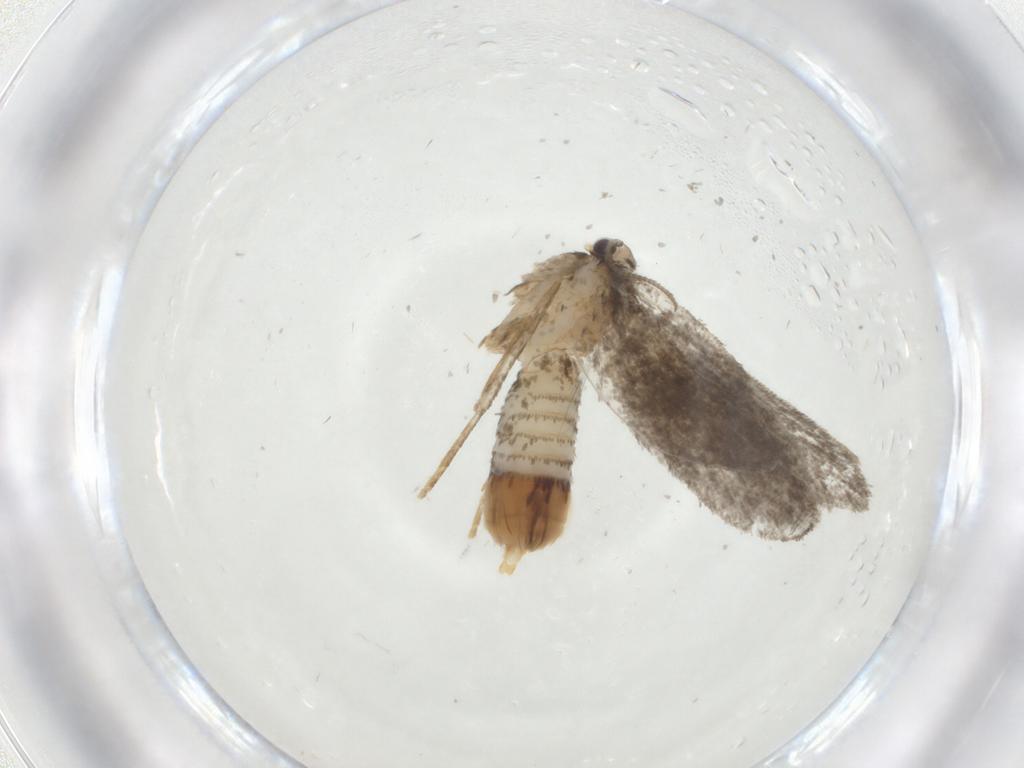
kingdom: Animalia
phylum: Arthropoda
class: Insecta
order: Lepidoptera
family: Psychidae
